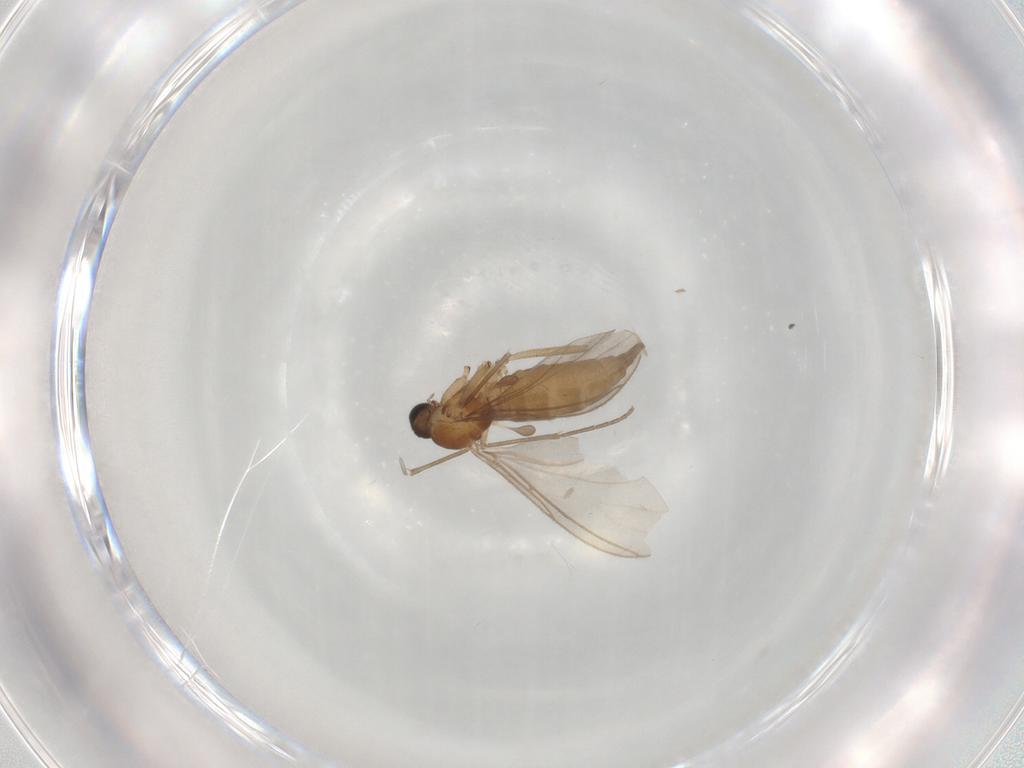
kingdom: Animalia
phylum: Arthropoda
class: Insecta
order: Diptera
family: Sciaridae
